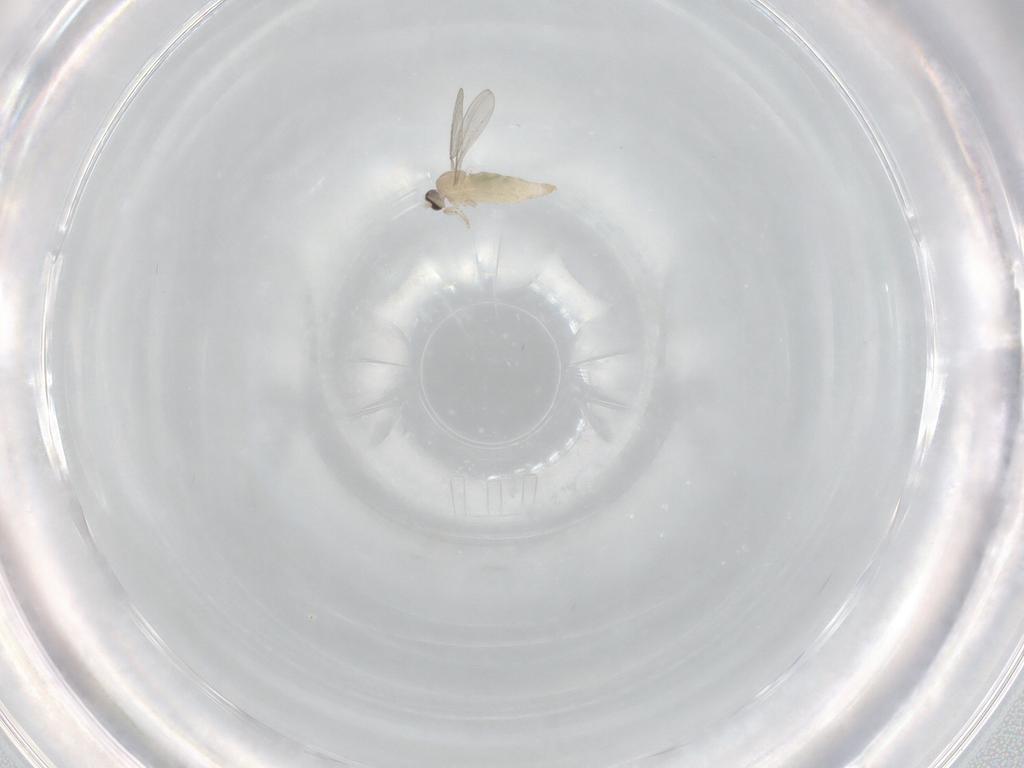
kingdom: Animalia
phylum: Arthropoda
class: Insecta
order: Diptera
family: Cecidomyiidae
